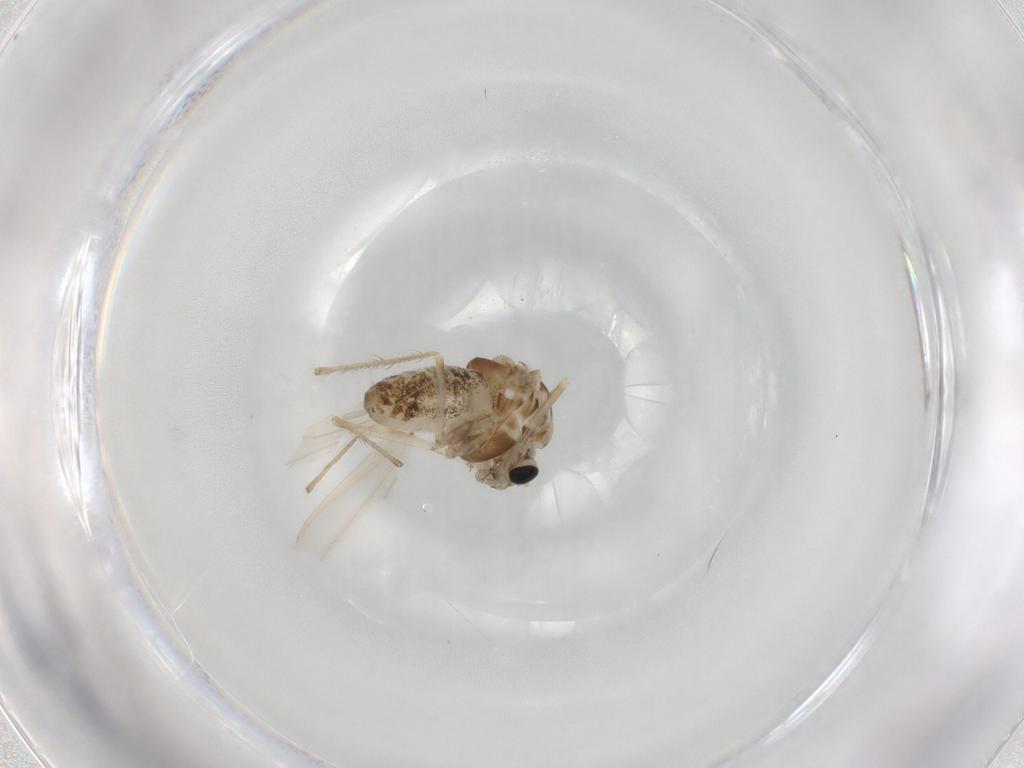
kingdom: Animalia
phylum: Arthropoda
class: Insecta
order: Diptera
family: Chironomidae
